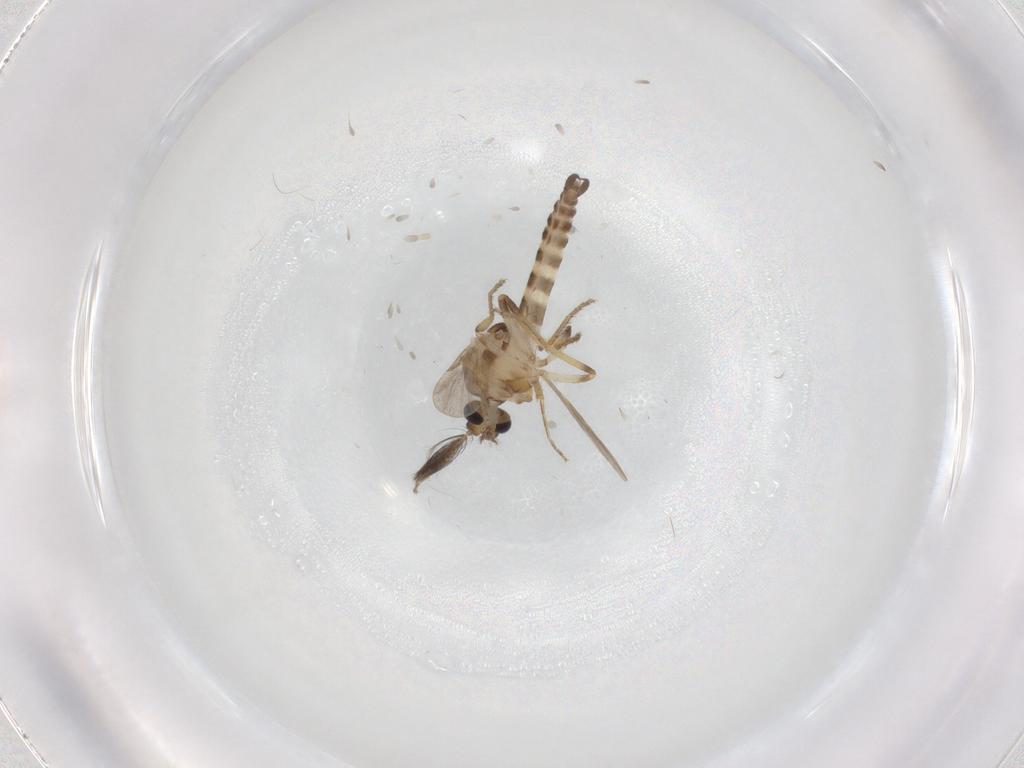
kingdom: Animalia
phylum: Arthropoda
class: Insecta
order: Diptera
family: Ceratopogonidae
